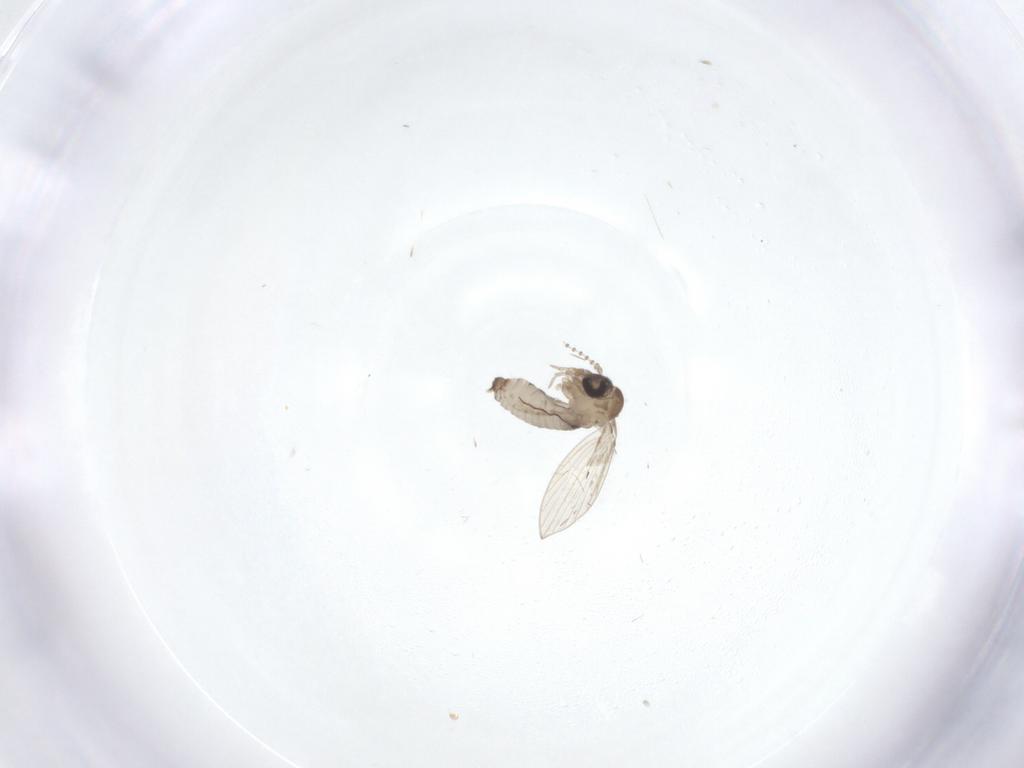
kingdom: Animalia
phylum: Arthropoda
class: Insecta
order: Diptera
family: Psychodidae
